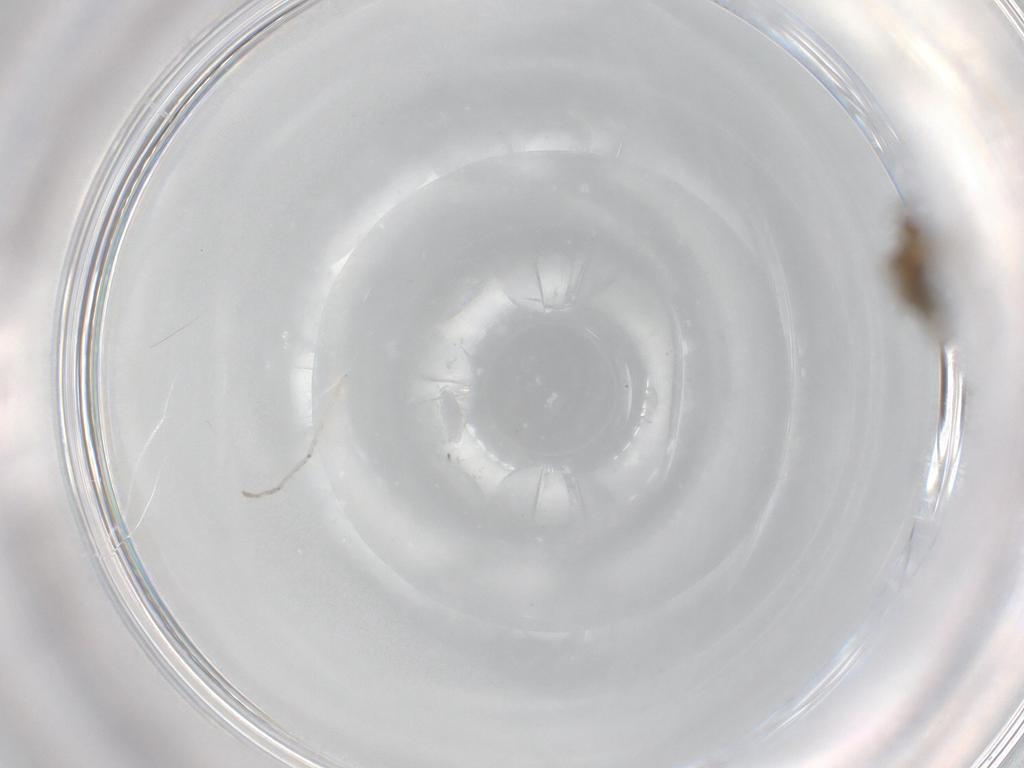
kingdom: Animalia
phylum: Arthropoda
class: Insecta
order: Diptera
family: Cecidomyiidae
